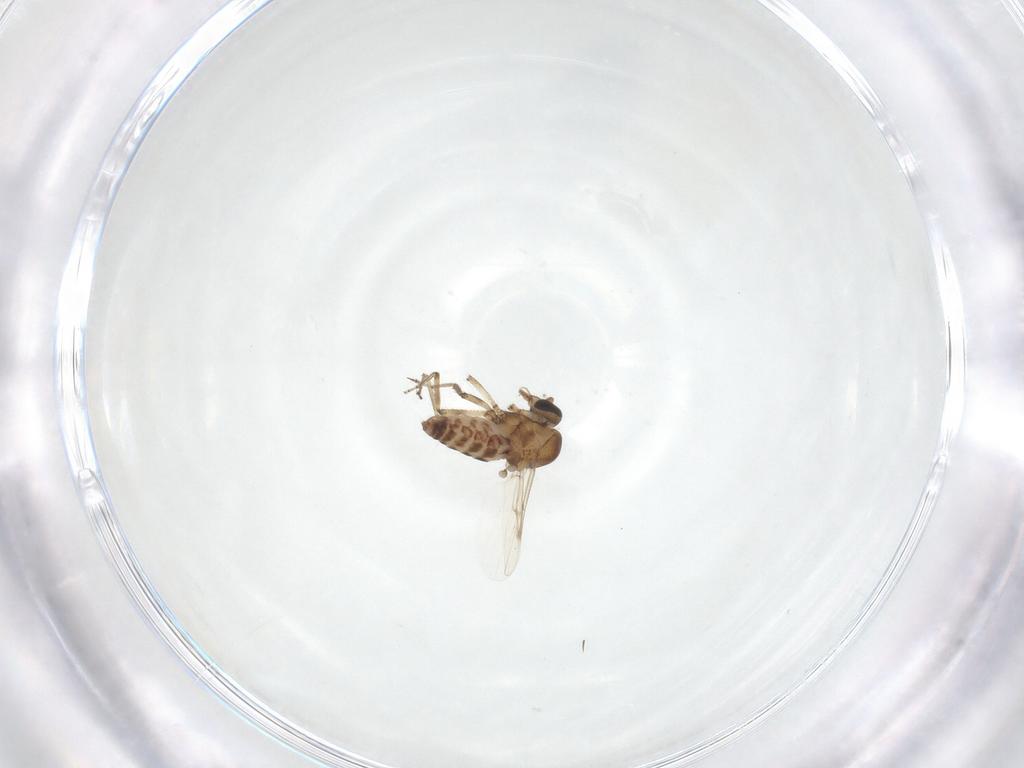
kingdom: Animalia
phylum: Arthropoda
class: Insecta
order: Diptera
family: Ceratopogonidae
